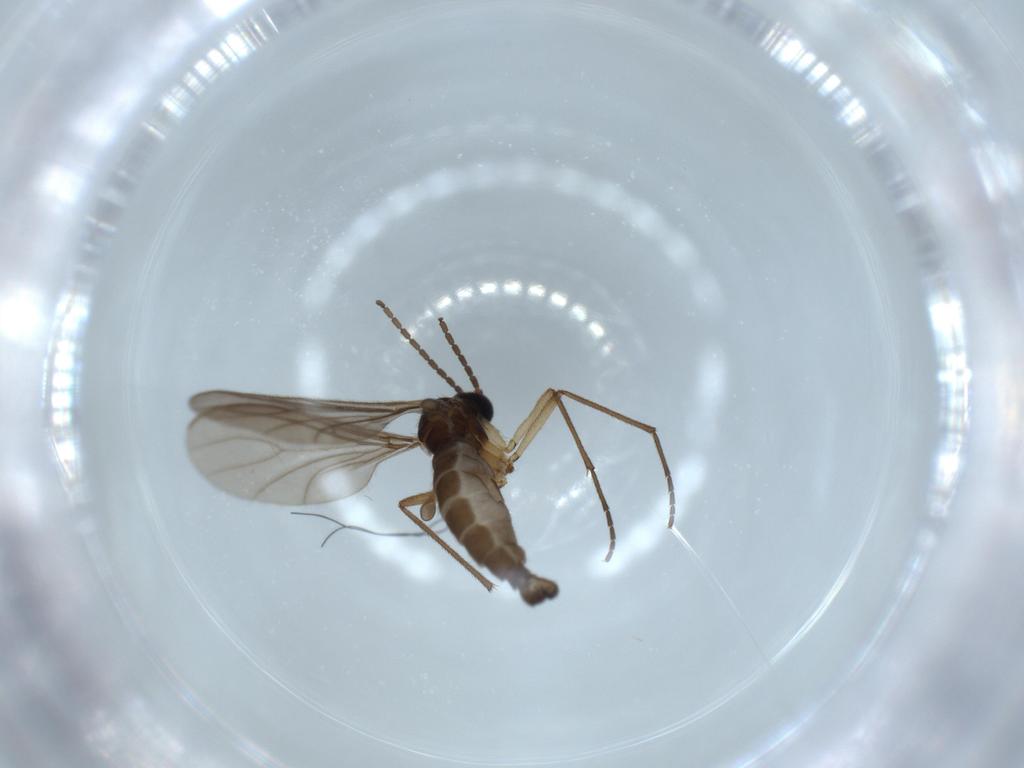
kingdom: Animalia
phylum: Arthropoda
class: Insecta
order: Diptera
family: Sciaridae
